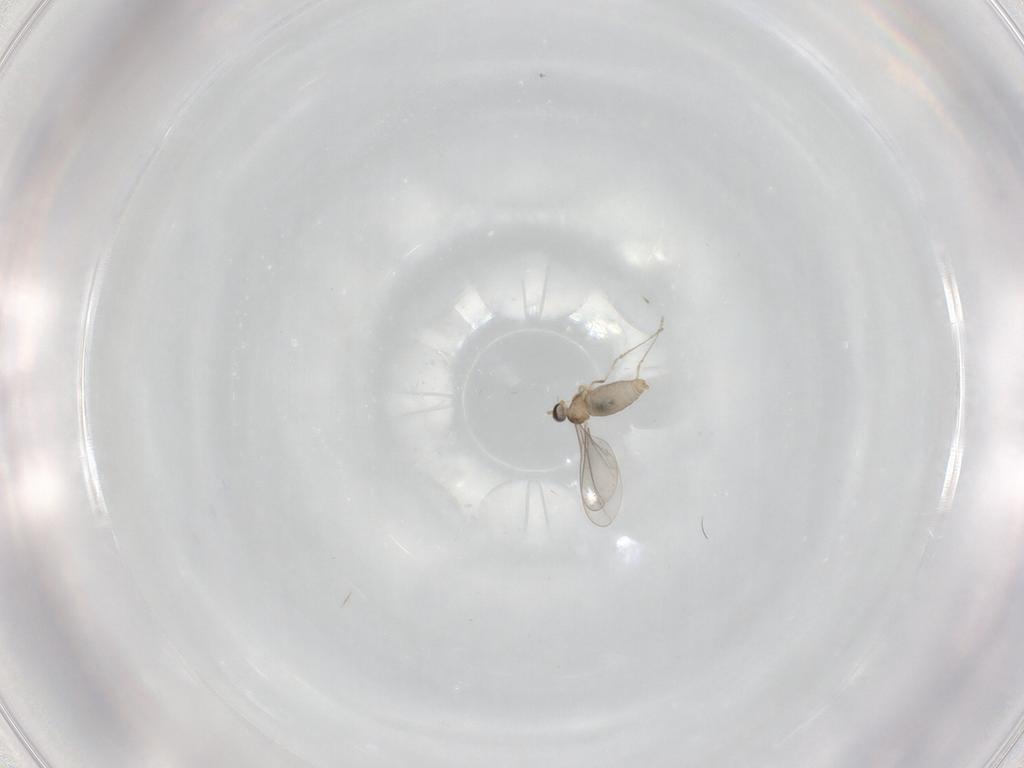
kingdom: Animalia
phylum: Arthropoda
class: Insecta
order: Diptera
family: Cecidomyiidae
